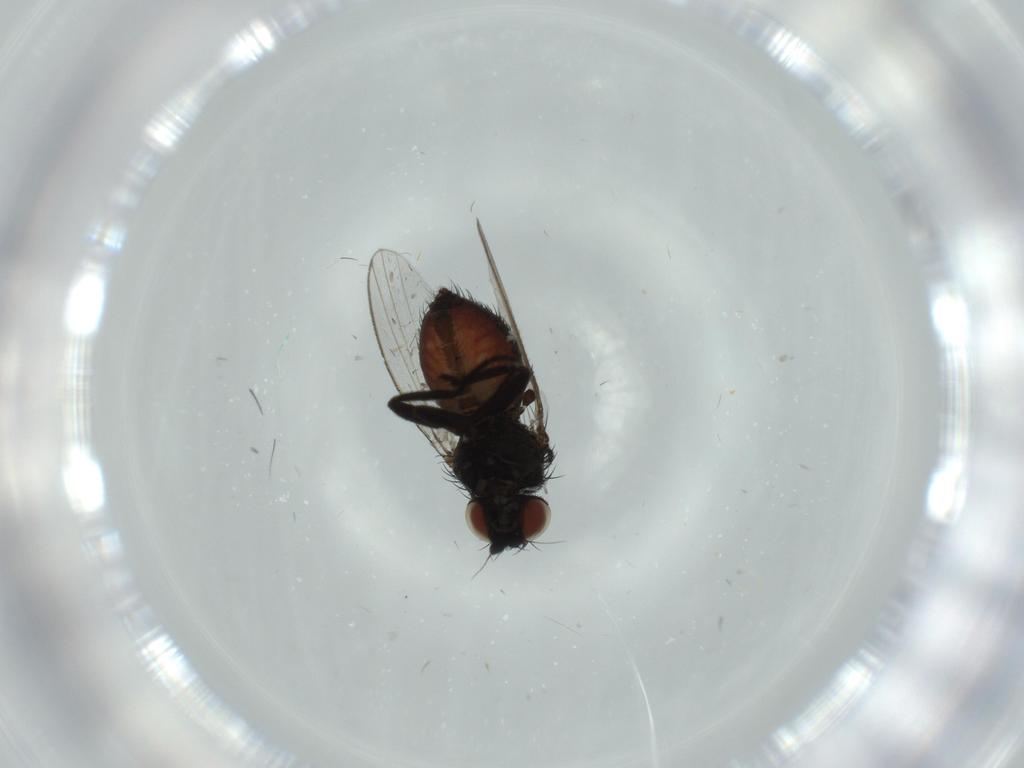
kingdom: Animalia
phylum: Arthropoda
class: Insecta
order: Diptera
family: Milichiidae
